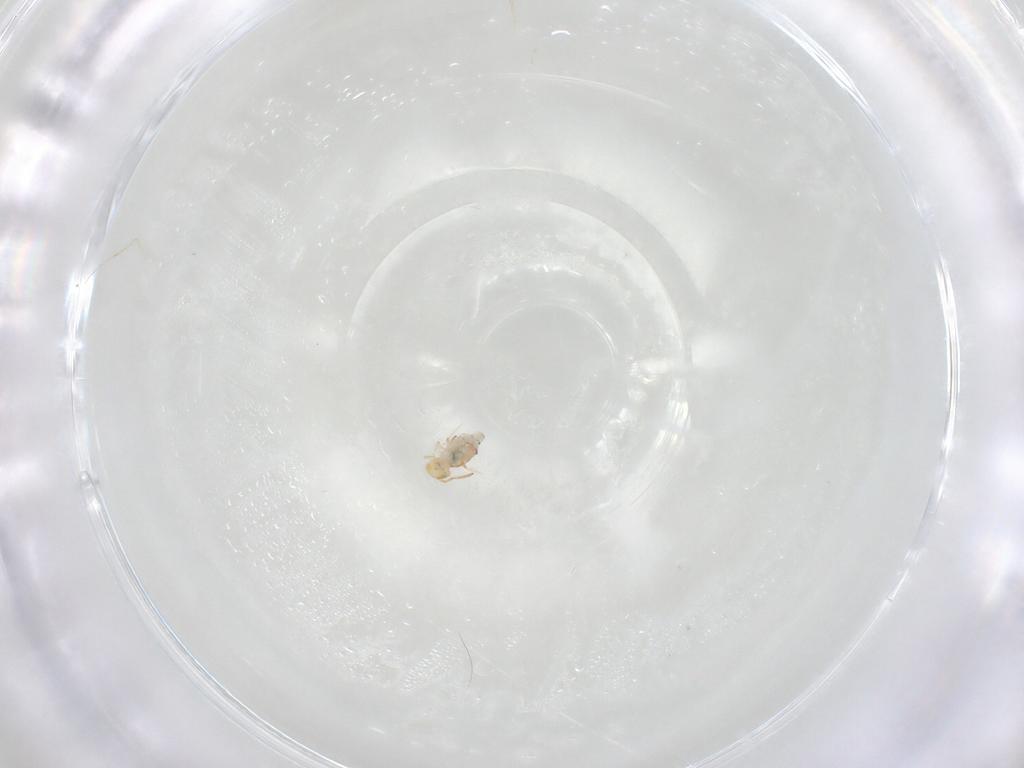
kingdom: Animalia
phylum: Arthropoda
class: Insecta
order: Diptera
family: Cecidomyiidae
